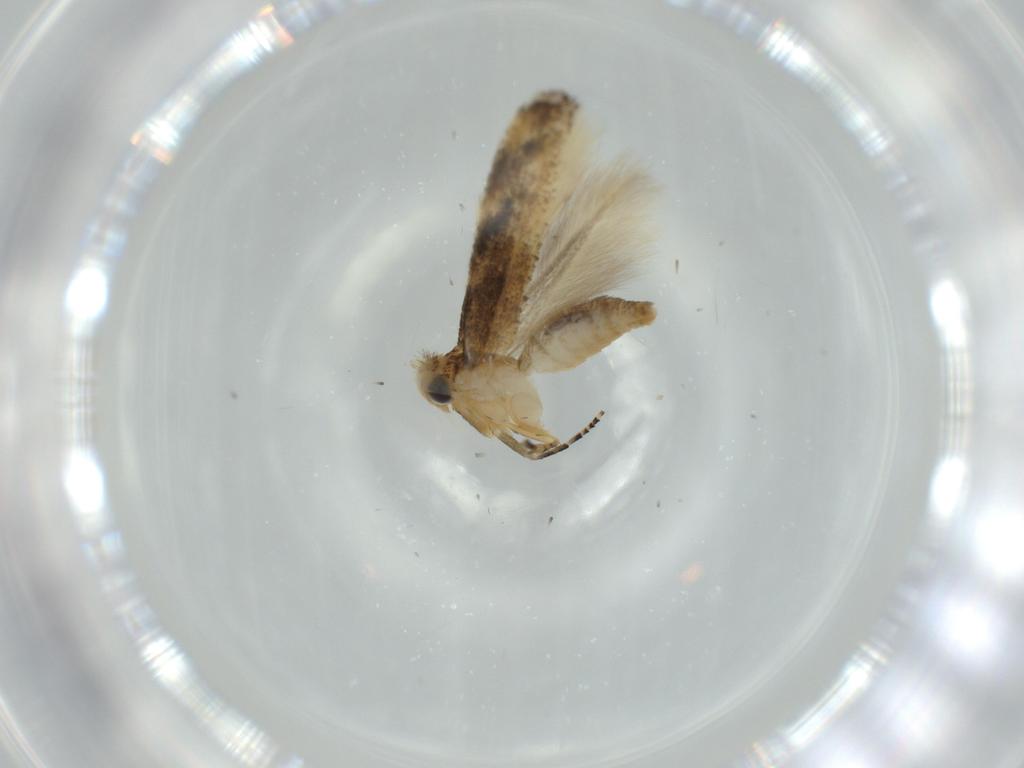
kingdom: Animalia
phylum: Arthropoda
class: Insecta
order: Lepidoptera
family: Bucculatricidae
